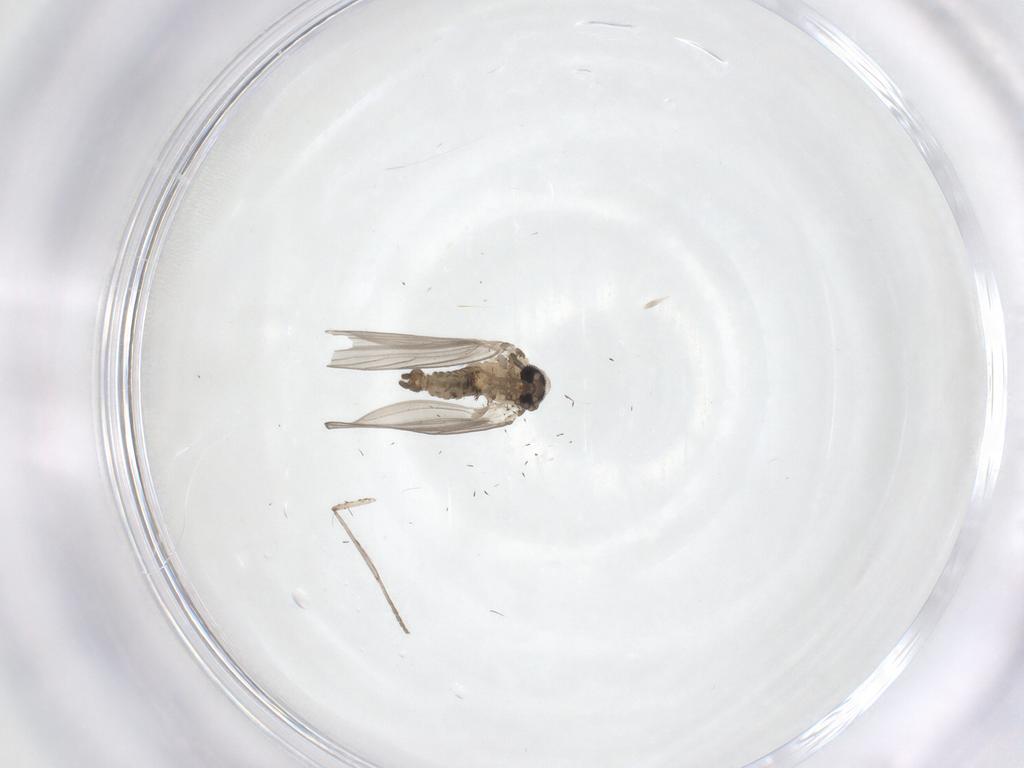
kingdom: Animalia
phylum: Arthropoda
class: Insecta
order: Diptera
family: Psychodidae
